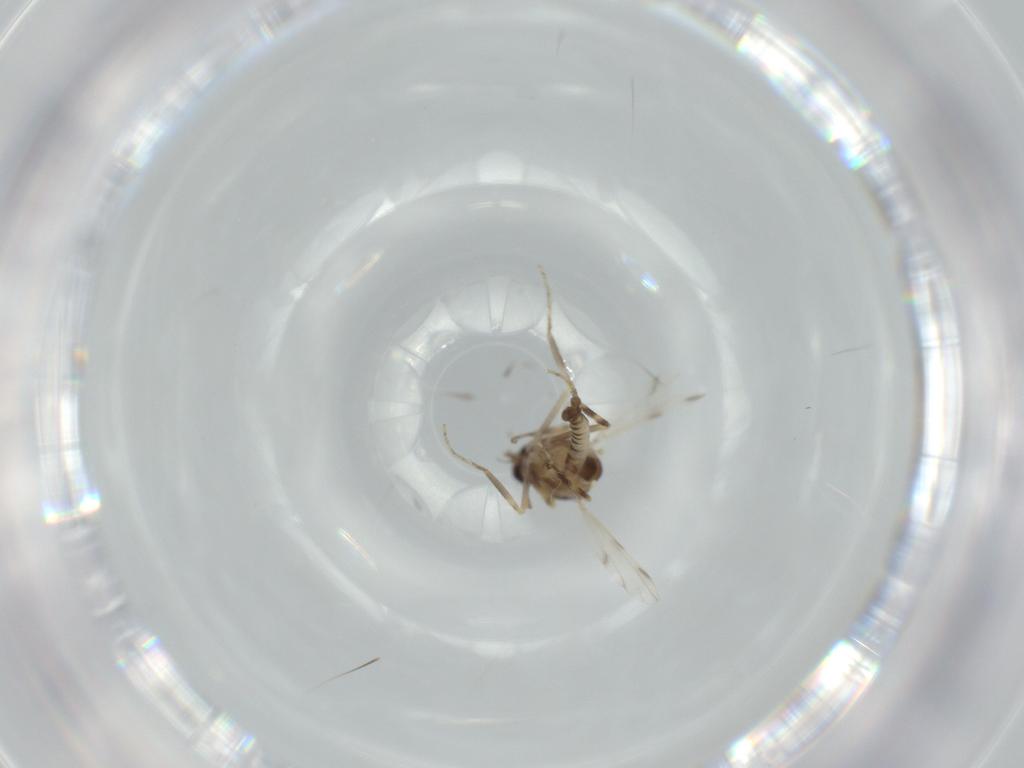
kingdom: Animalia
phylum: Arthropoda
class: Insecta
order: Diptera
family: Ceratopogonidae
